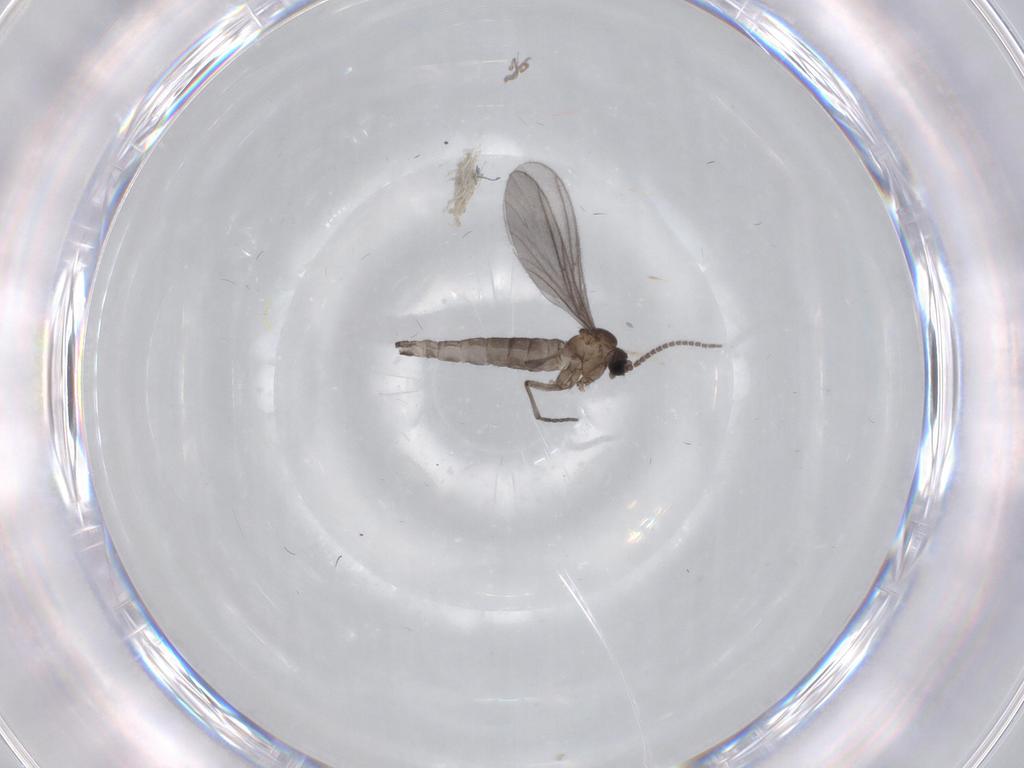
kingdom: Animalia
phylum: Arthropoda
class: Insecta
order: Diptera
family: Sciaridae
